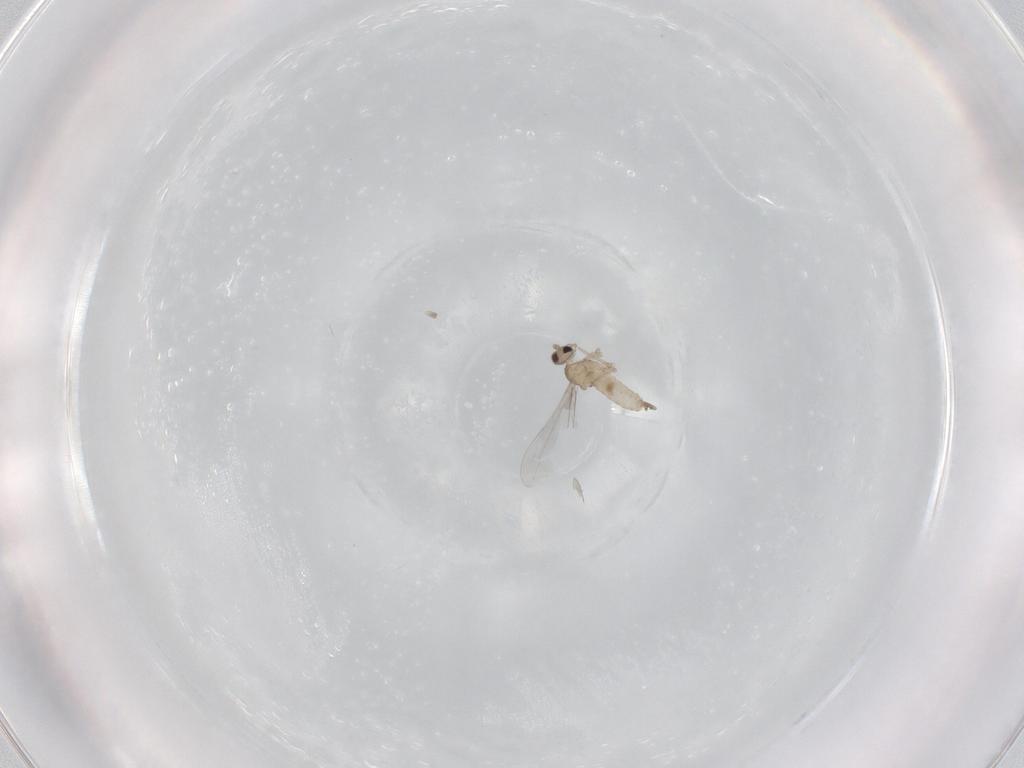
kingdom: Animalia
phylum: Arthropoda
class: Insecta
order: Diptera
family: Cecidomyiidae
